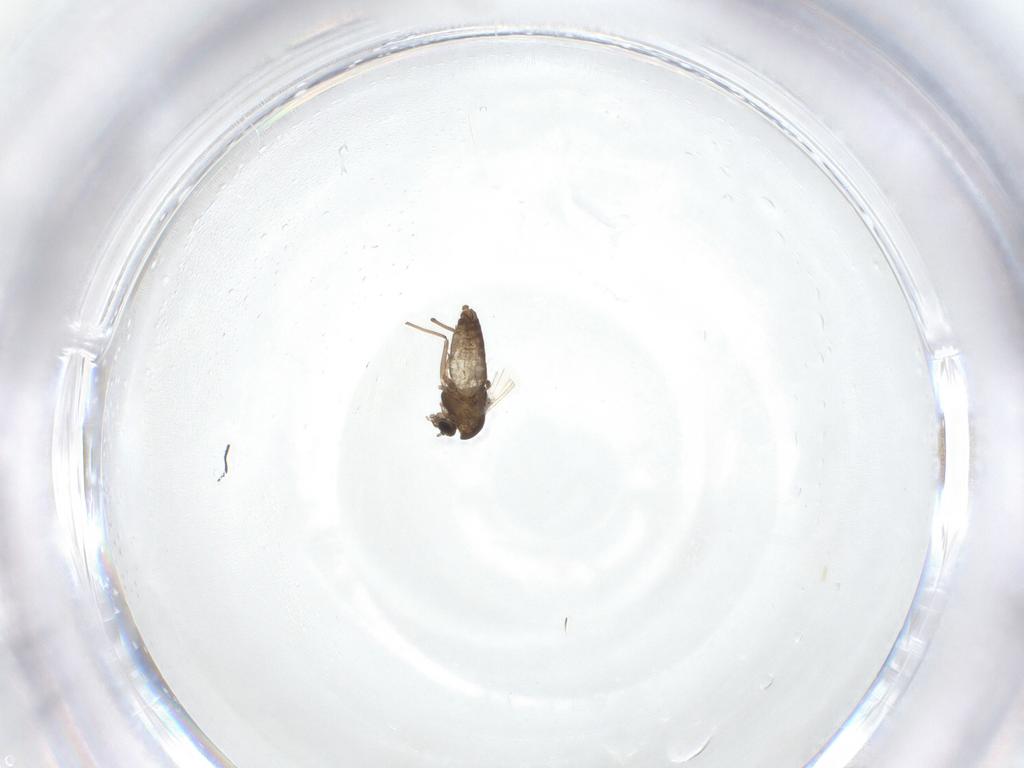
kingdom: Animalia
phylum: Arthropoda
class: Insecta
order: Diptera
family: Chironomidae
